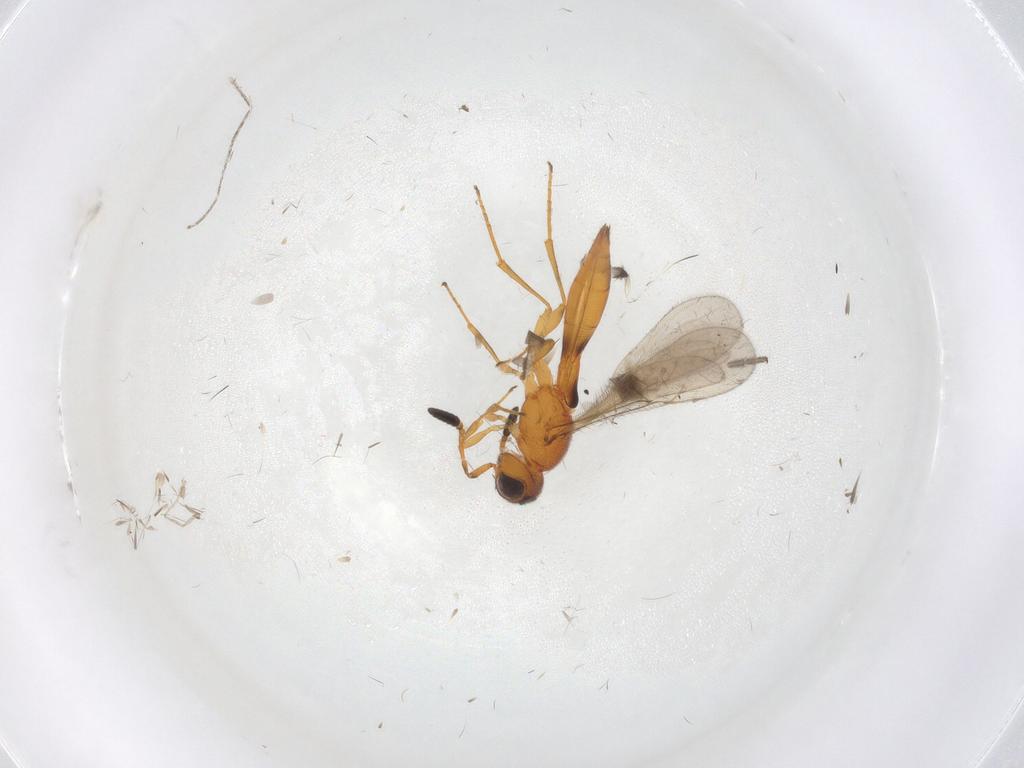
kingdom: Animalia
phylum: Arthropoda
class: Insecta
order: Hymenoptera
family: Scelionidae
